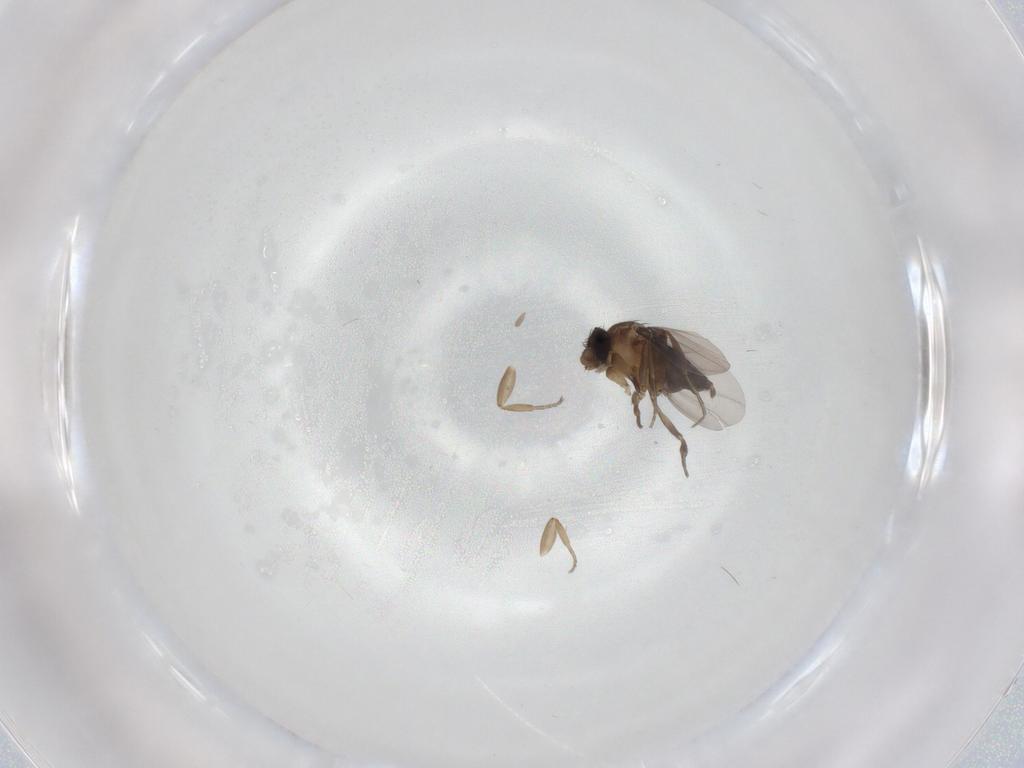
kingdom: Animalia
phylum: Arthropoda
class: Insecta
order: Diptera
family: Phoridae
